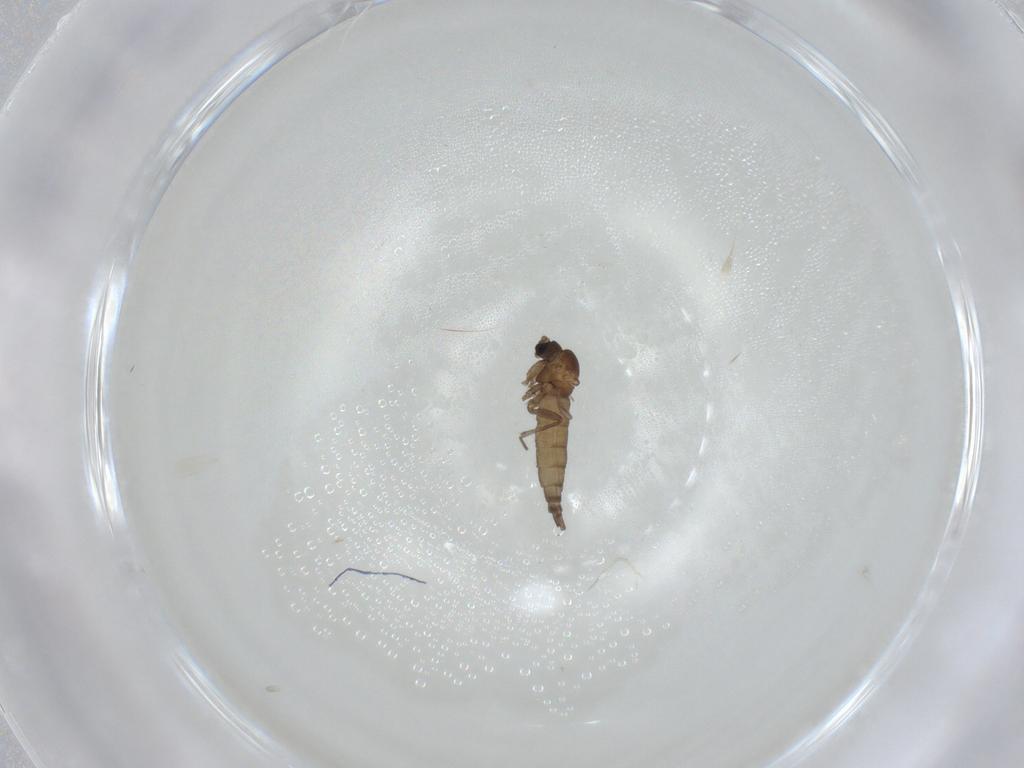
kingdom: Animalia
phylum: Arthropoda
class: Insecta
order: Diptera
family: Sciaridae
